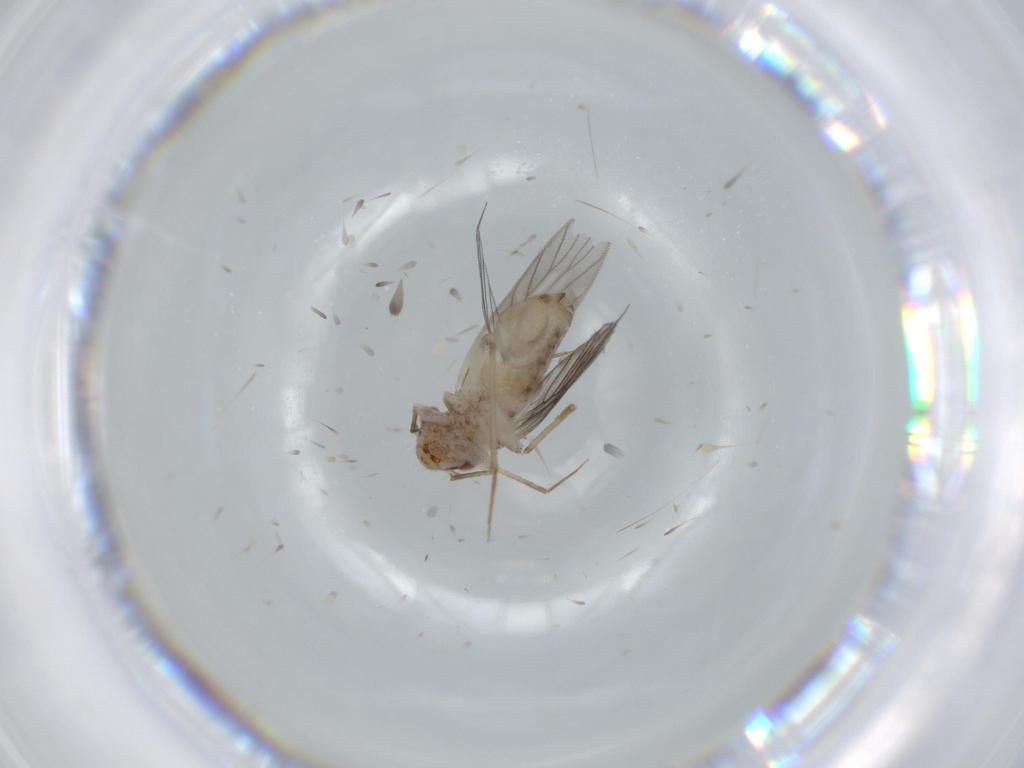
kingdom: Animalia
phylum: Arthropoda
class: Insecta
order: Psocodea
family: Lepidopsocidae
